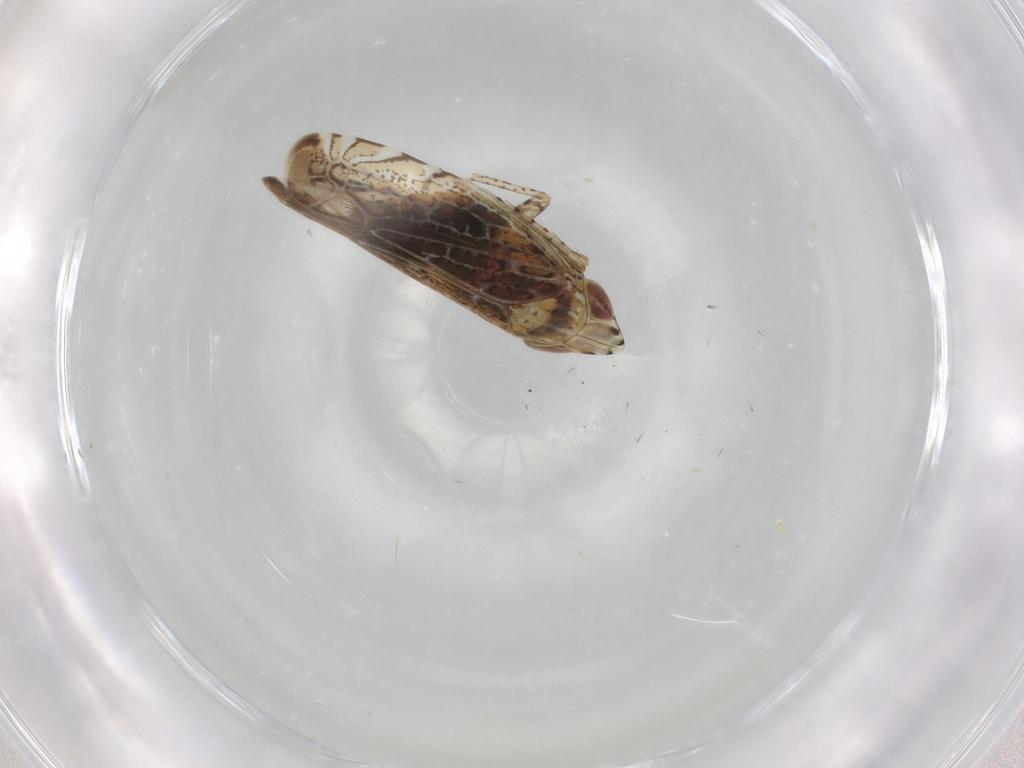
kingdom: Animalia
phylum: Arthropoda
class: Insecta
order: Hemiptera
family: Cicadellidae
